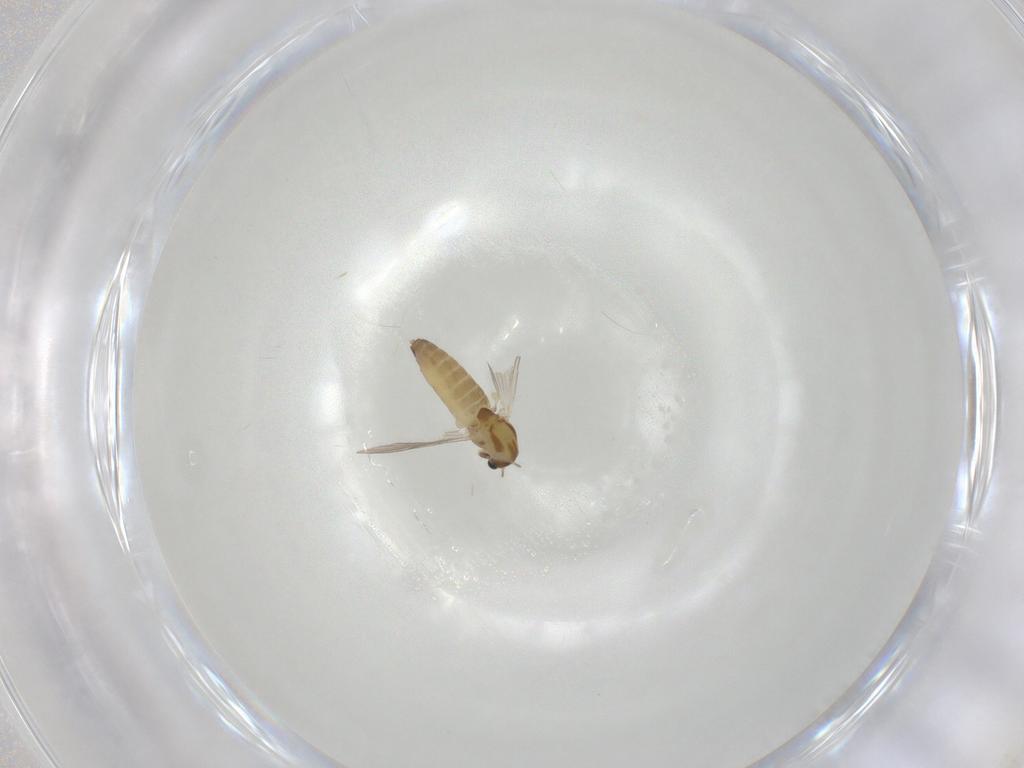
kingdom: Animalia
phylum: Arthropoda
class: Insecta
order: Diptera
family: Chironomidae
